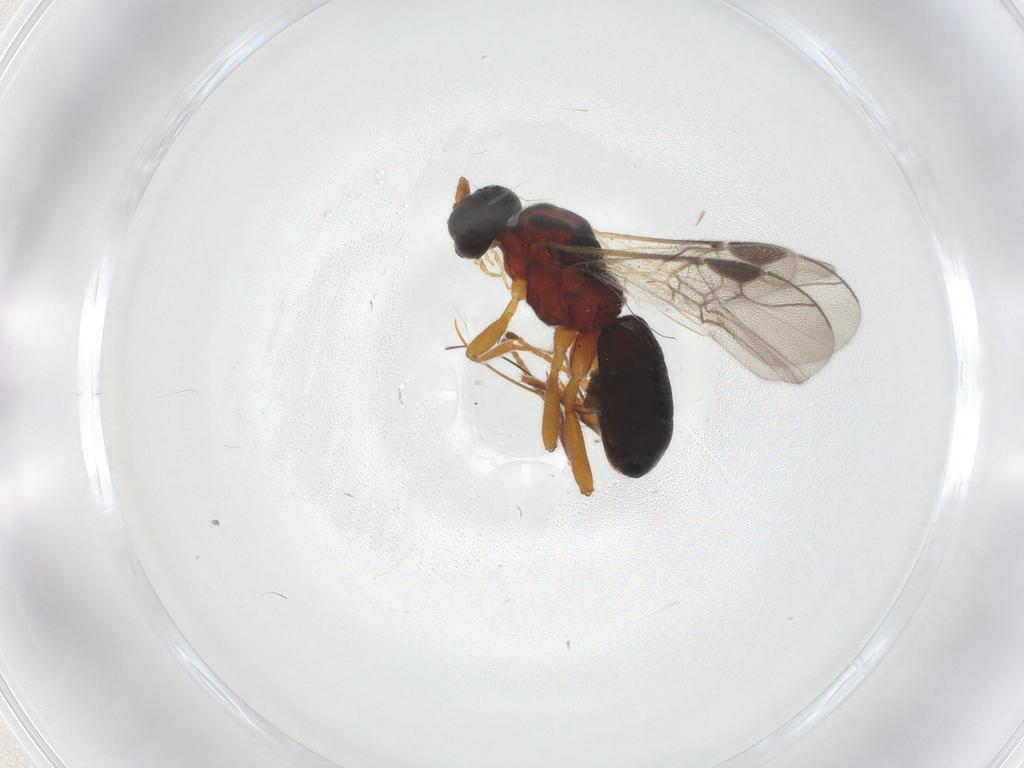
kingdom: Animalia
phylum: Arthropoda
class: Insecta
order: Hymenoptera
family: Braconidae
